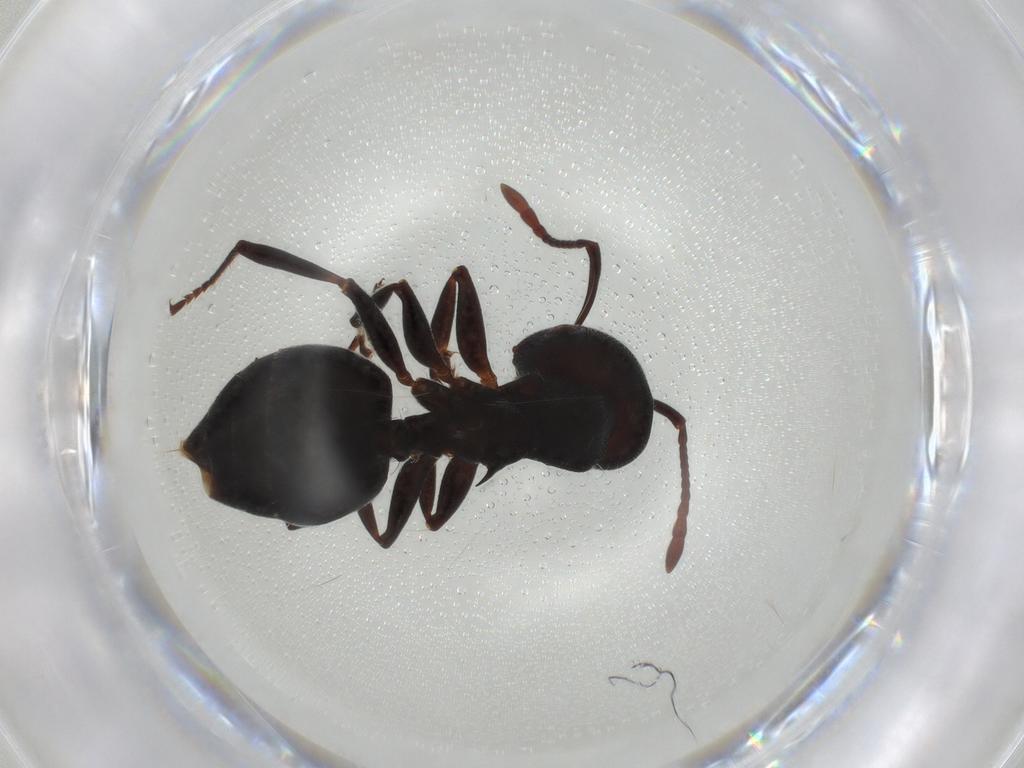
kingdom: Animalia
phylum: Arthropoda
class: Insecta
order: Hymenoptera
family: Formicidae
